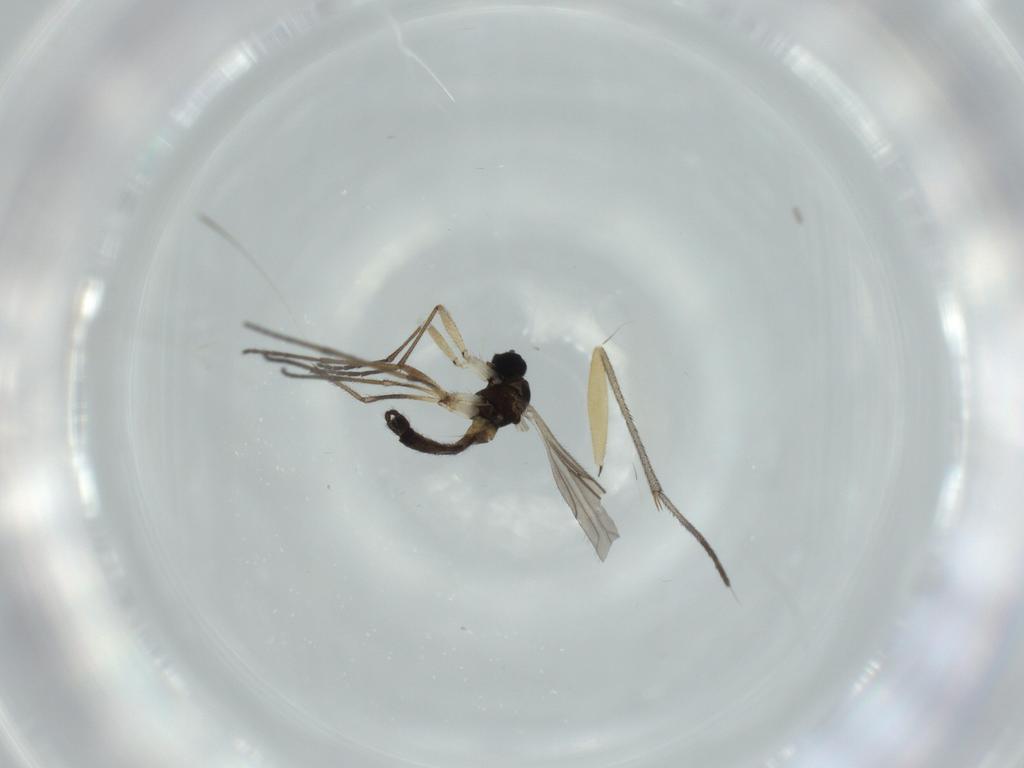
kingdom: Animalia
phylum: Arthropoda
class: Insecta
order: Diptera
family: Sciaridae
